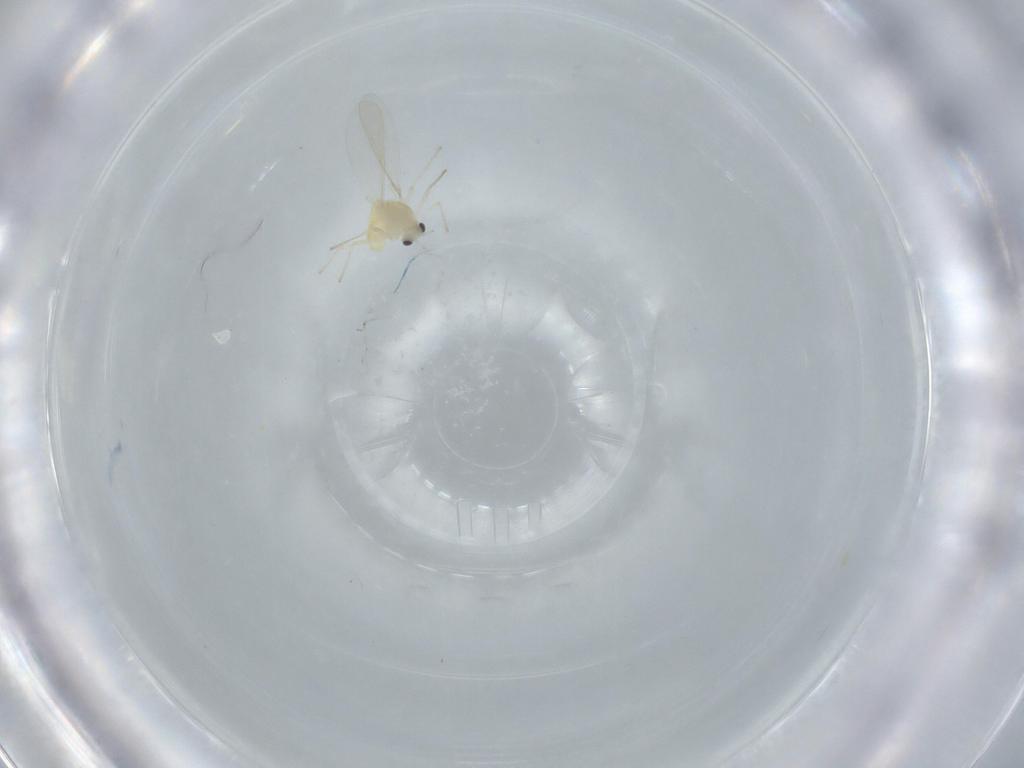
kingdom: Animalia
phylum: Arthropoda
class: Insecta
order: Diptera
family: Chironomidae
